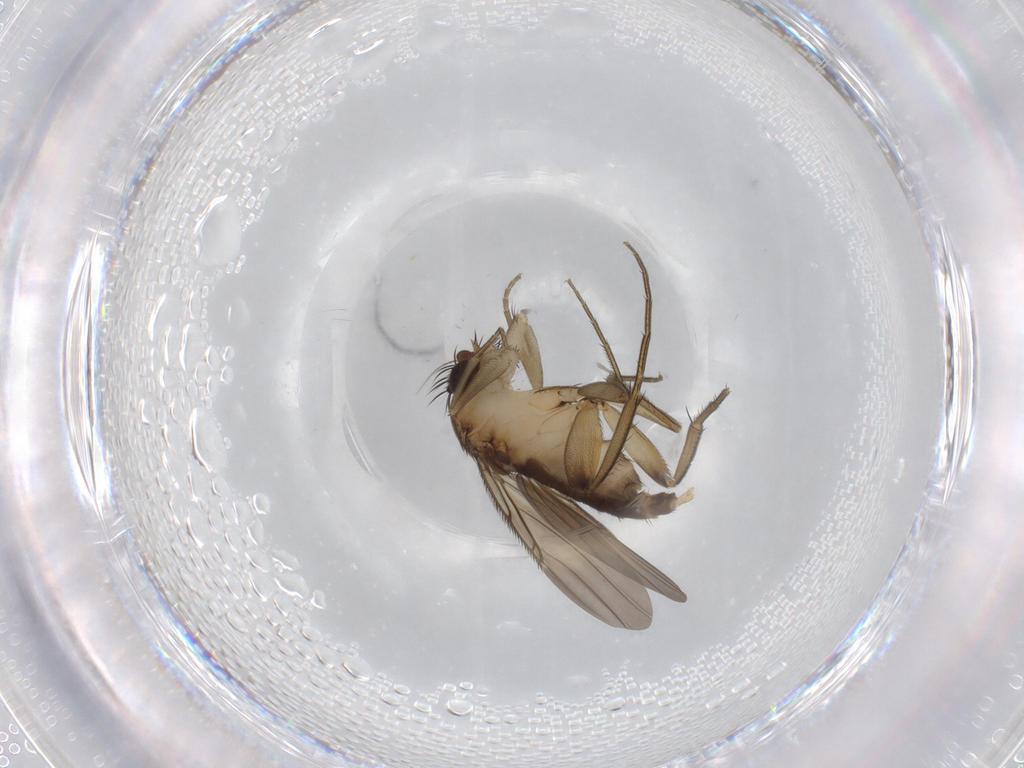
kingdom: Animalia
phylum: Arthropoda
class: Insecta
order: Diptera
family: Phoridae
